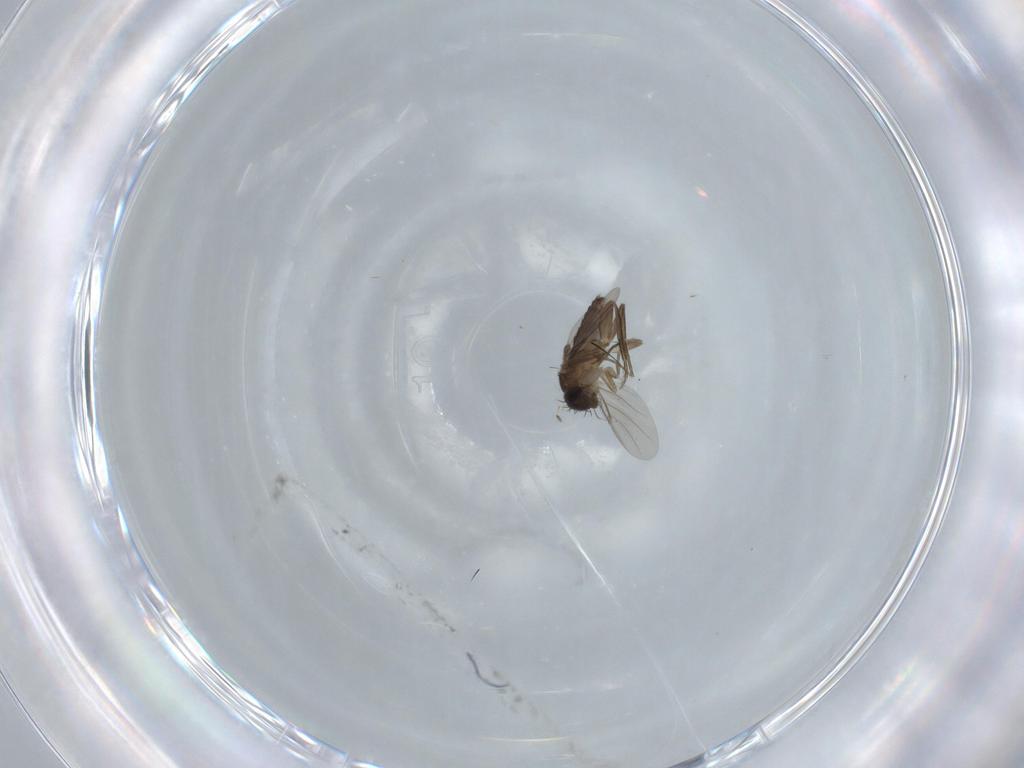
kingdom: Animalia
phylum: Arthropoda
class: Insecta
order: Diptera
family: Phoridae
